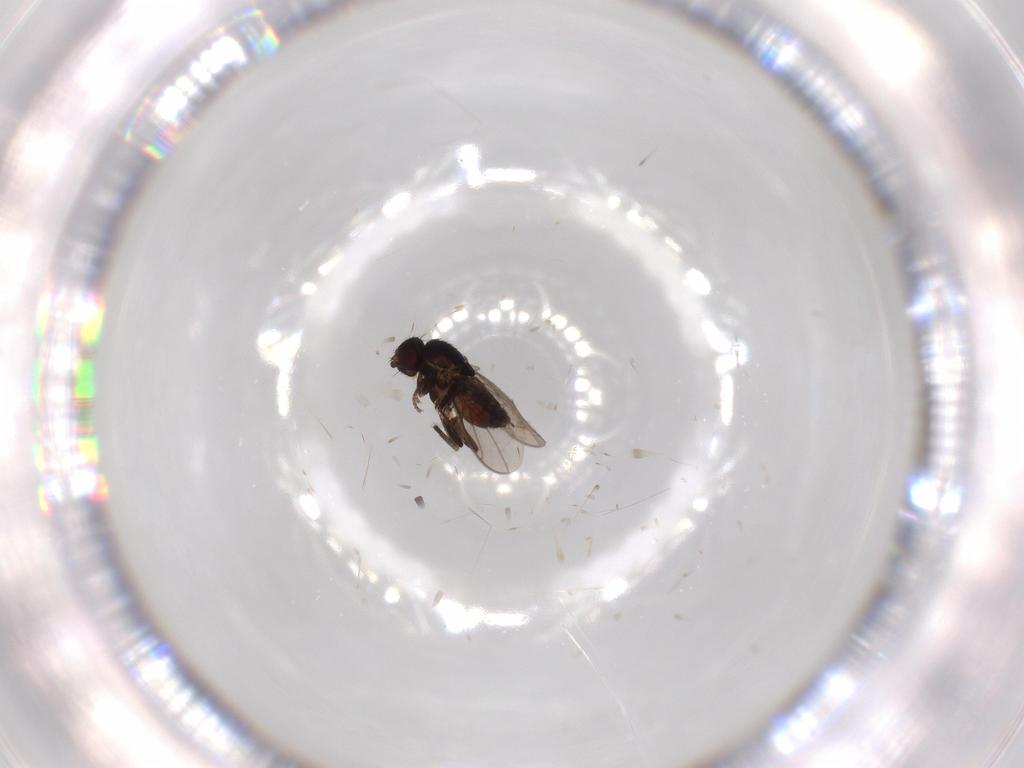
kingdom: Animalia
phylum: Arthropoda
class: Insecta
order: Diptera
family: Sphaeroceridae
